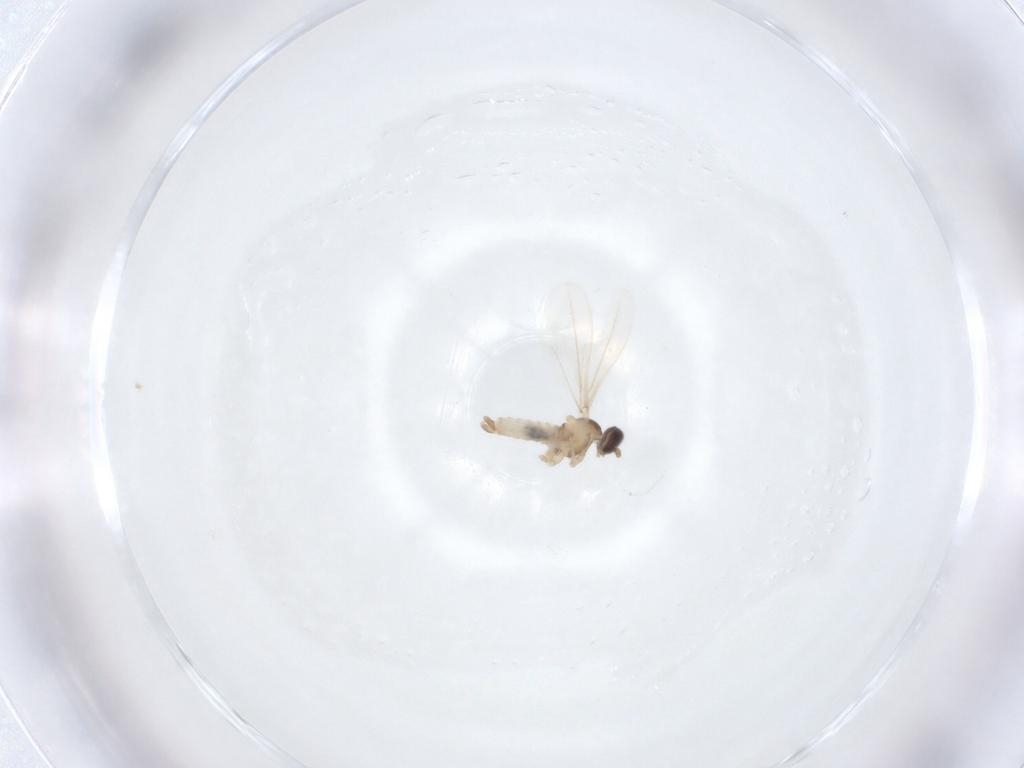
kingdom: Animalia
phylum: Arthropoda
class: Insecta
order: Diptera
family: Cecidomyiidae
